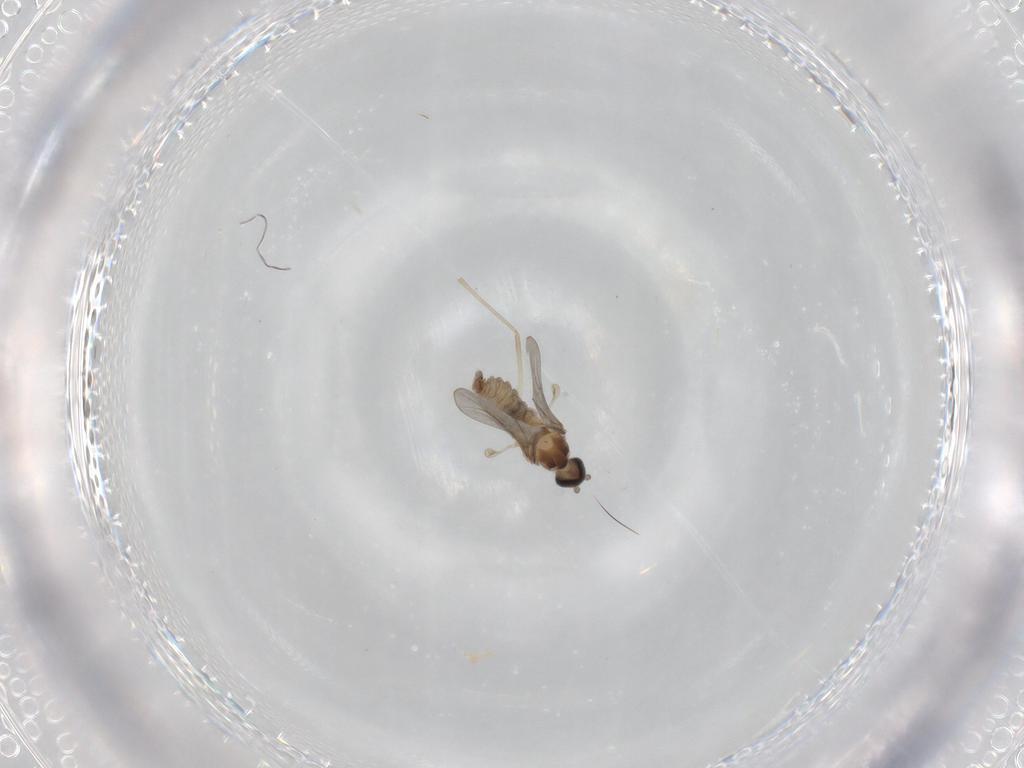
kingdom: Animalia
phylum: Arthropoda
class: Insecta
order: Diptera
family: Cecidomyiidae
